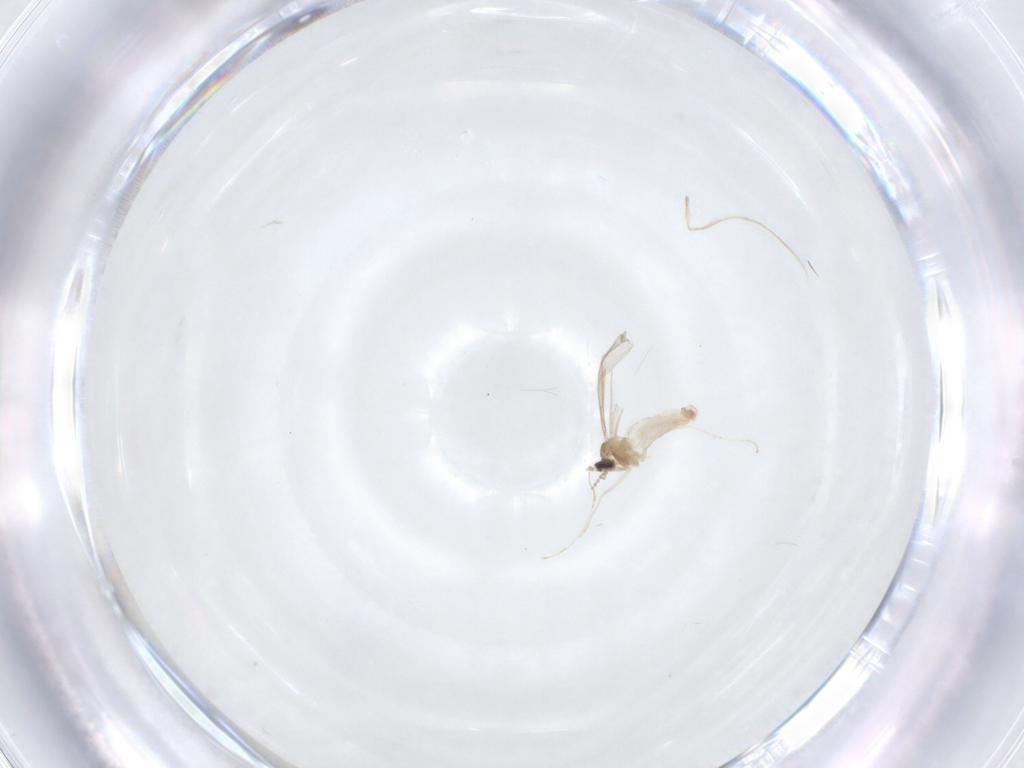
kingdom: Animalia
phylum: Arthropoda
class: Insecta
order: Diptera
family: Cecidomyiidae
